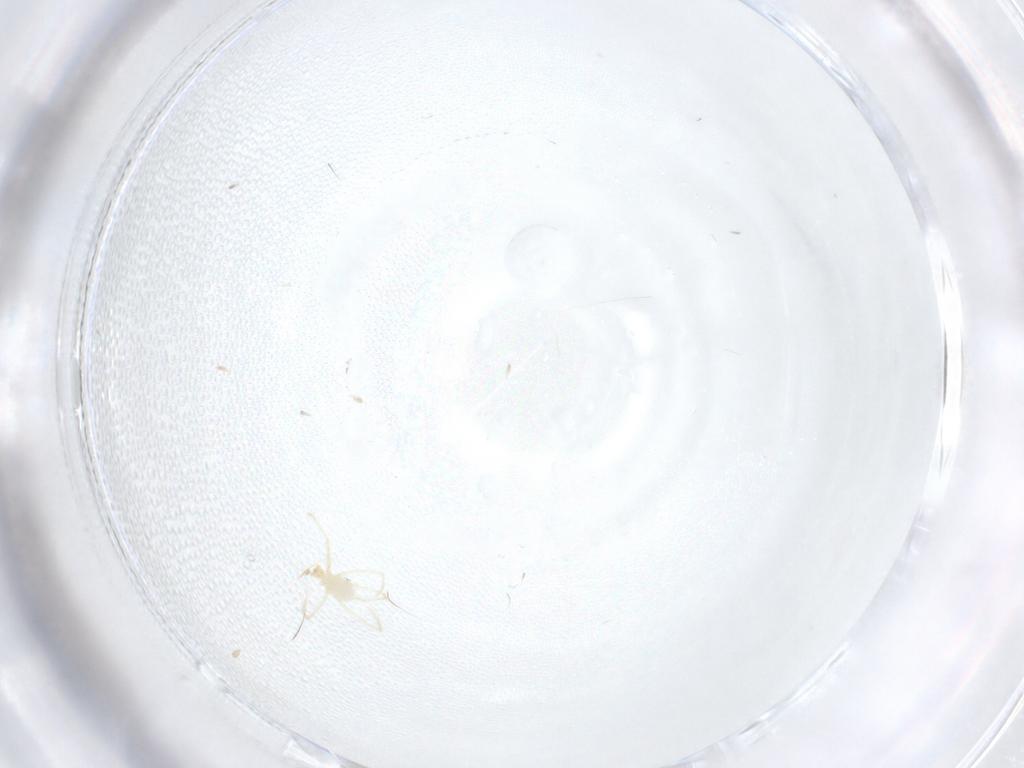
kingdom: Animalia
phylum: Arthropoda
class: Arachnida
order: Trombidiformes
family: Erythraeidae
